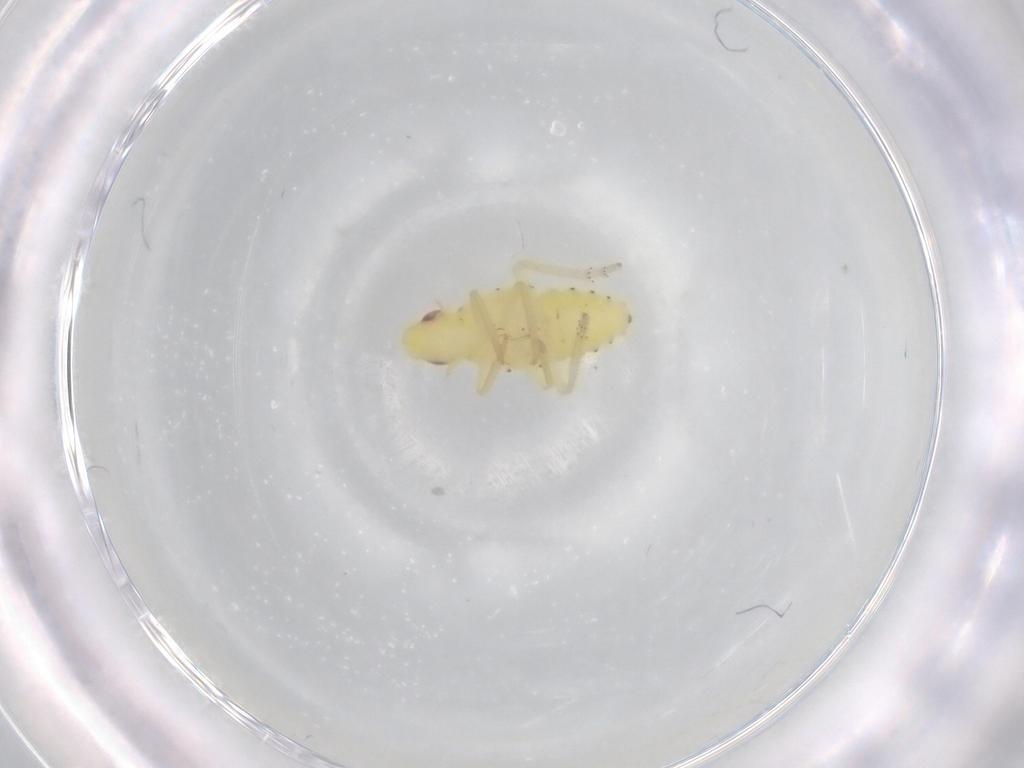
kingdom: Animalia
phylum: Arthropoda
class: Insecta
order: Hemiptera
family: Tropiduchidae
